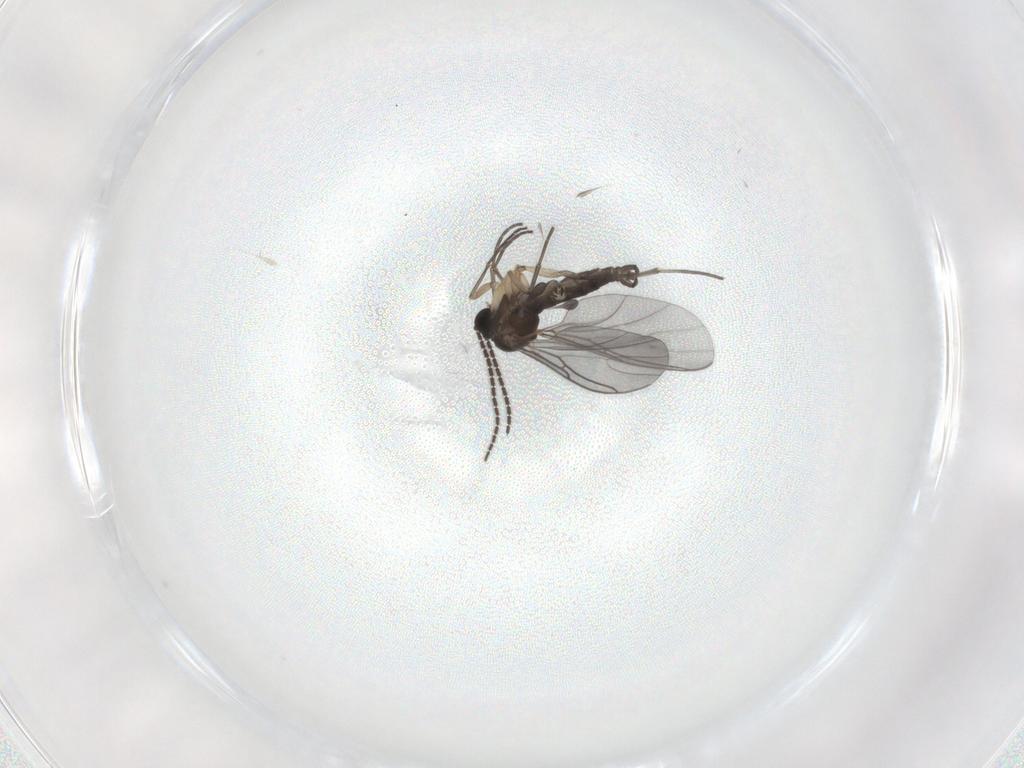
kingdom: Animalia
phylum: Arthropoda
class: Insecta
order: Diptera
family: Sciaridae
